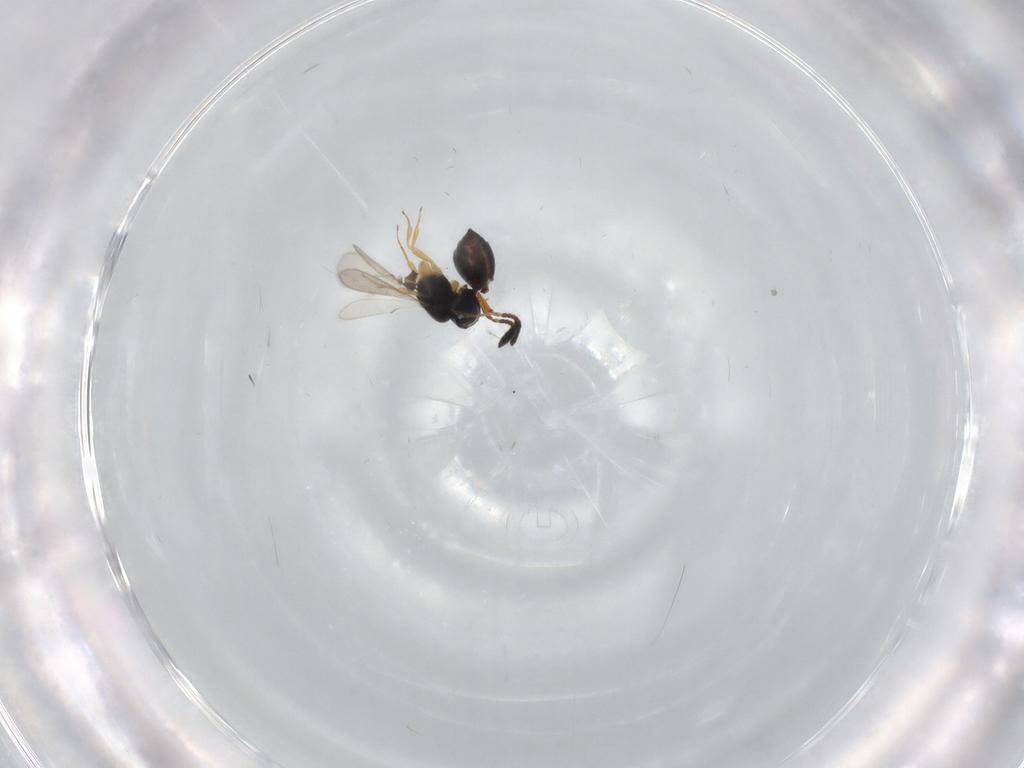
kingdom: Animalia
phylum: Arthropoda
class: Insecta
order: Hymenoptera
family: Scelionidae
